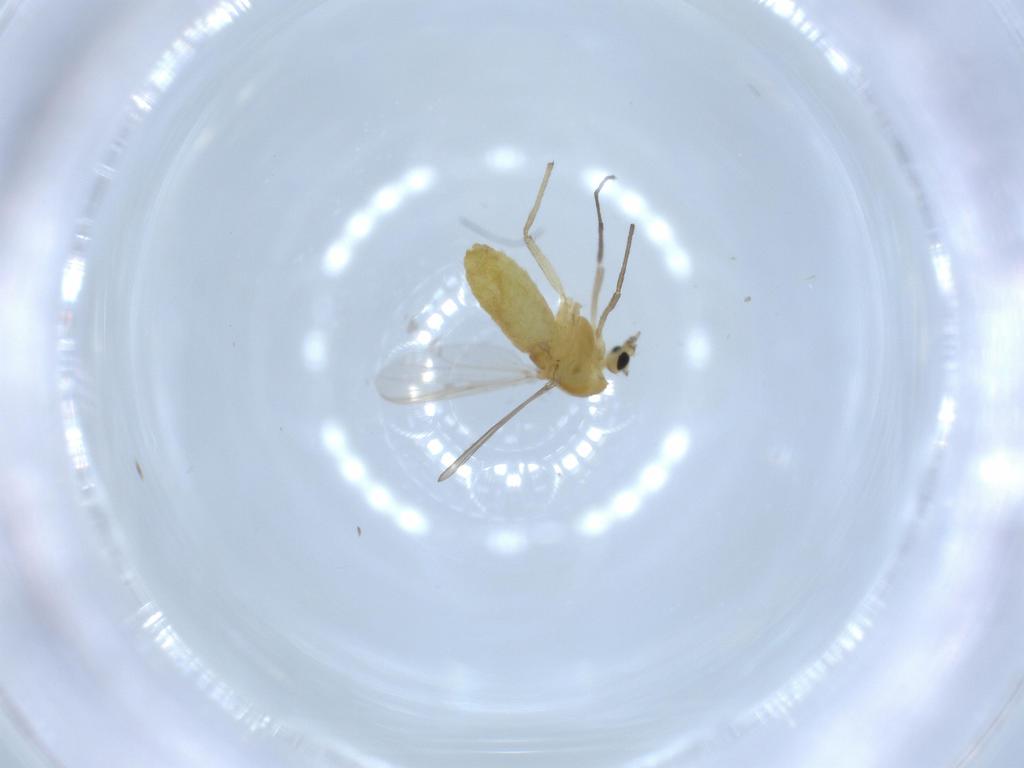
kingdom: Animalia
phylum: Arthropoda
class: Insecta
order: Diptera
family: Chironomidae
